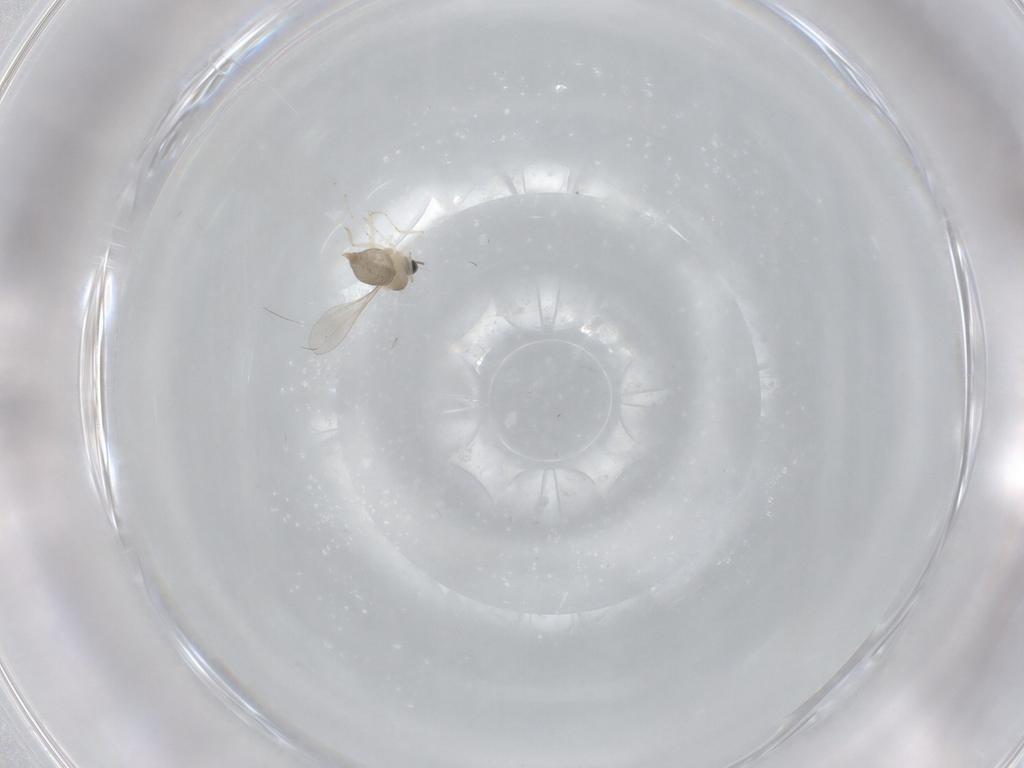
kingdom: Animalia
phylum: Arthropoda
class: Insecta
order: Diptera
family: Cecidomyiidae
